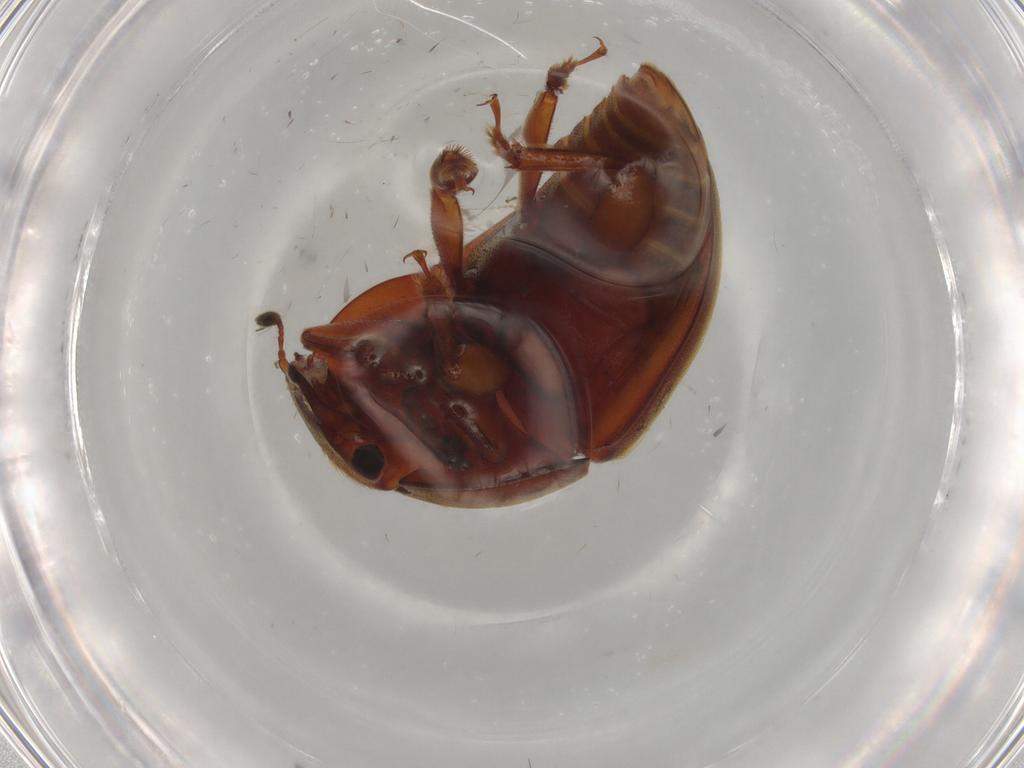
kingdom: Animalia
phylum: Arthropoda
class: Insecta
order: Coleoptera
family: Nitidulidae
